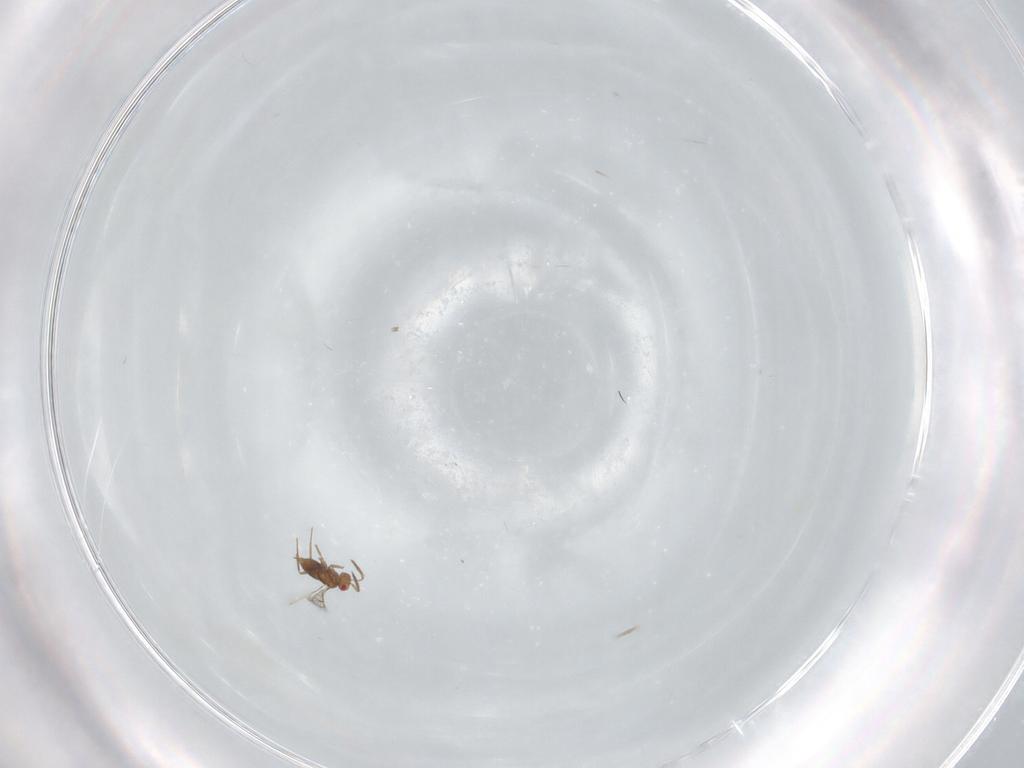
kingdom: Animalia
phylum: Arthropoda
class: Insecta
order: Hymenoptera
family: Trichogrammatidae
